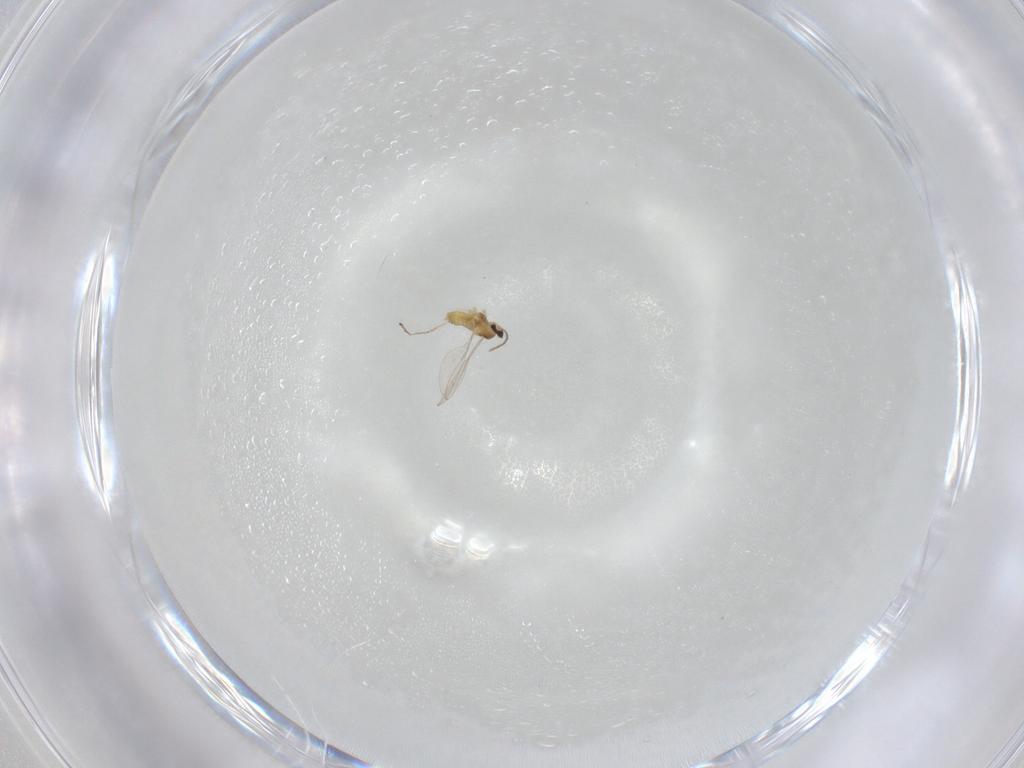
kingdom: Animalia
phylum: Arthropoda
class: Insecta
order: Diptera
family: Cecidomyiidae
